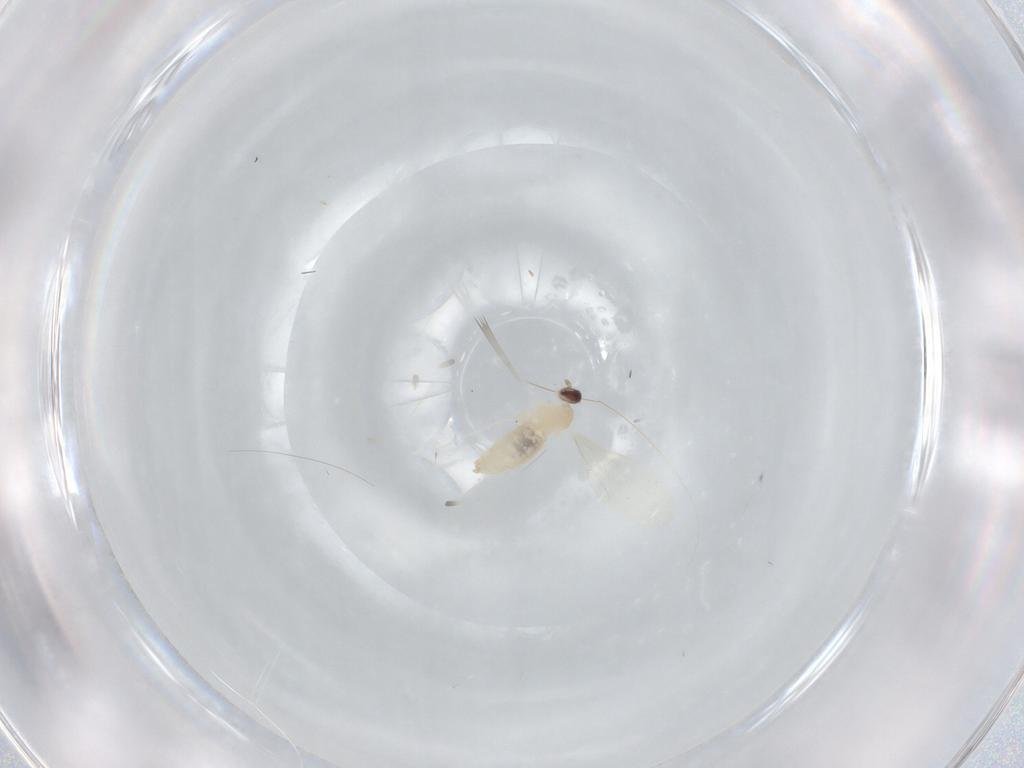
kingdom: Animalia
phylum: Arthropoda
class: Insecta
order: Diptera
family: Cecidomyiidae
